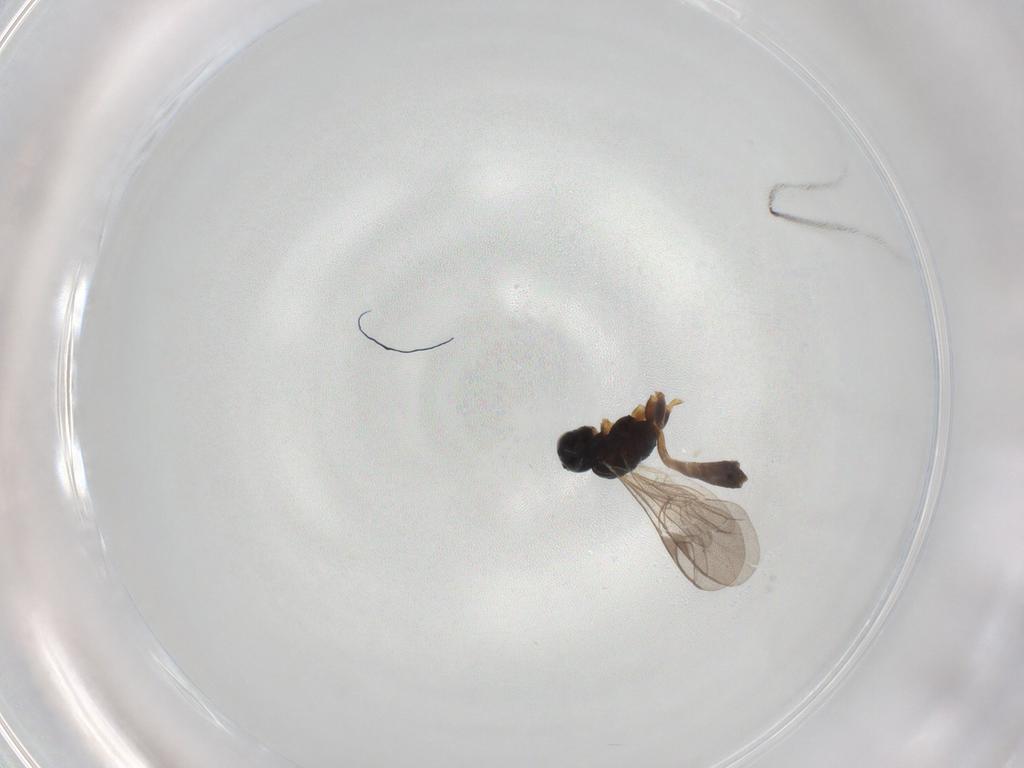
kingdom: Animalia
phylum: Arthropoda
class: Insecta
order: Hymenoptera
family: Ichneumonidae
